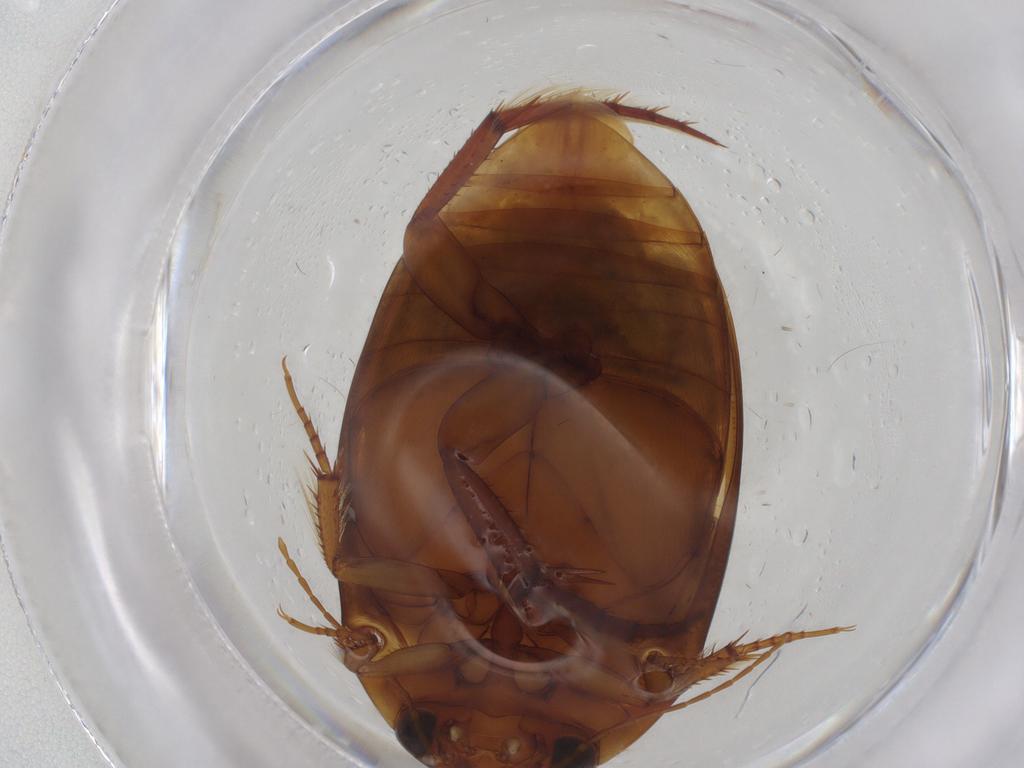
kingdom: Animalia
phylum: Arthropoda
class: Insecta
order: Coleoptera
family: Dytiscidae
